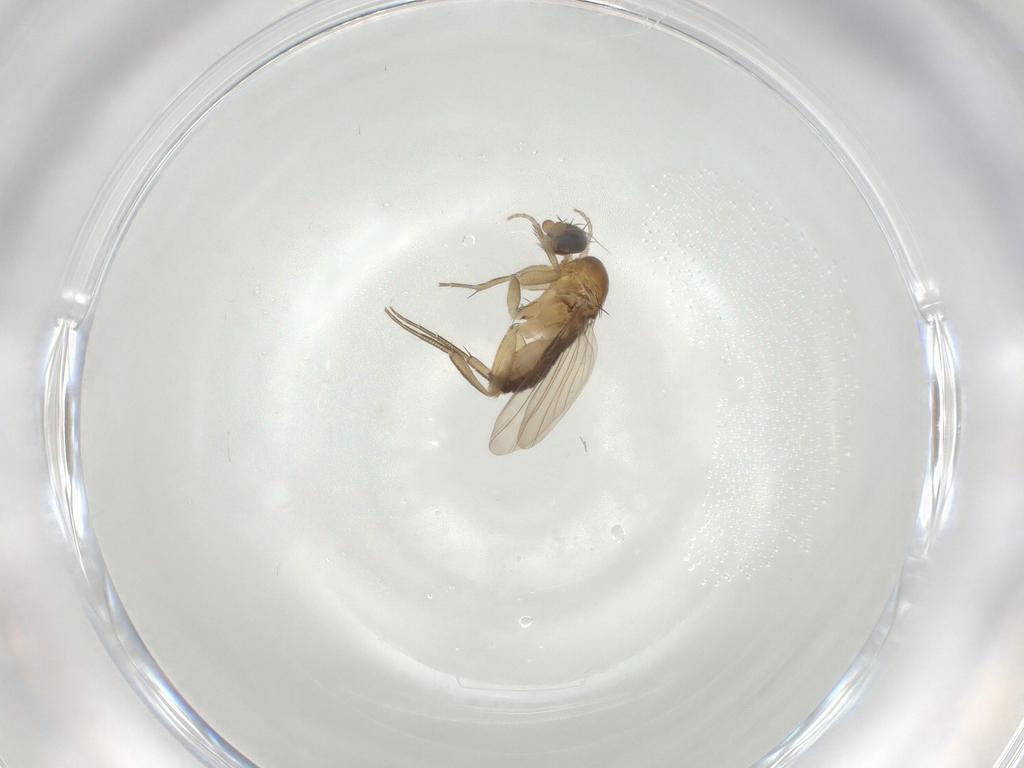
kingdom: Animalia
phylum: Arthropoda
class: Insecta
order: Diptera
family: Phoridae
